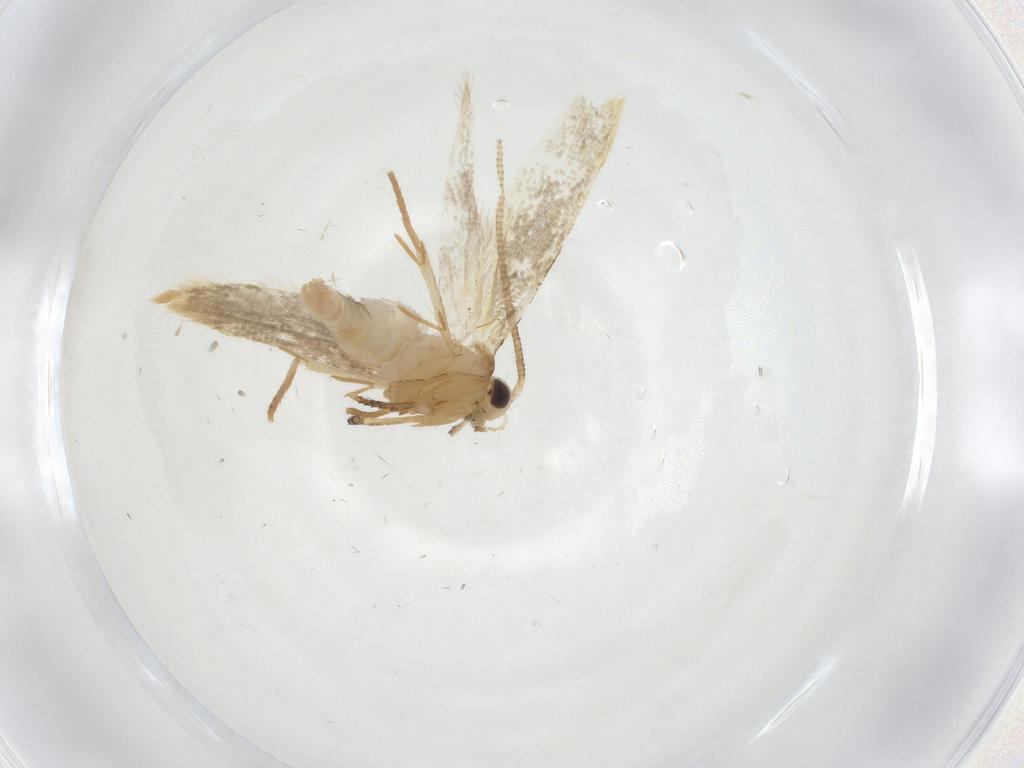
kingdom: Animalia
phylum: Arthropoda
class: Insecta
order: Lepidoptera
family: Tineidae
